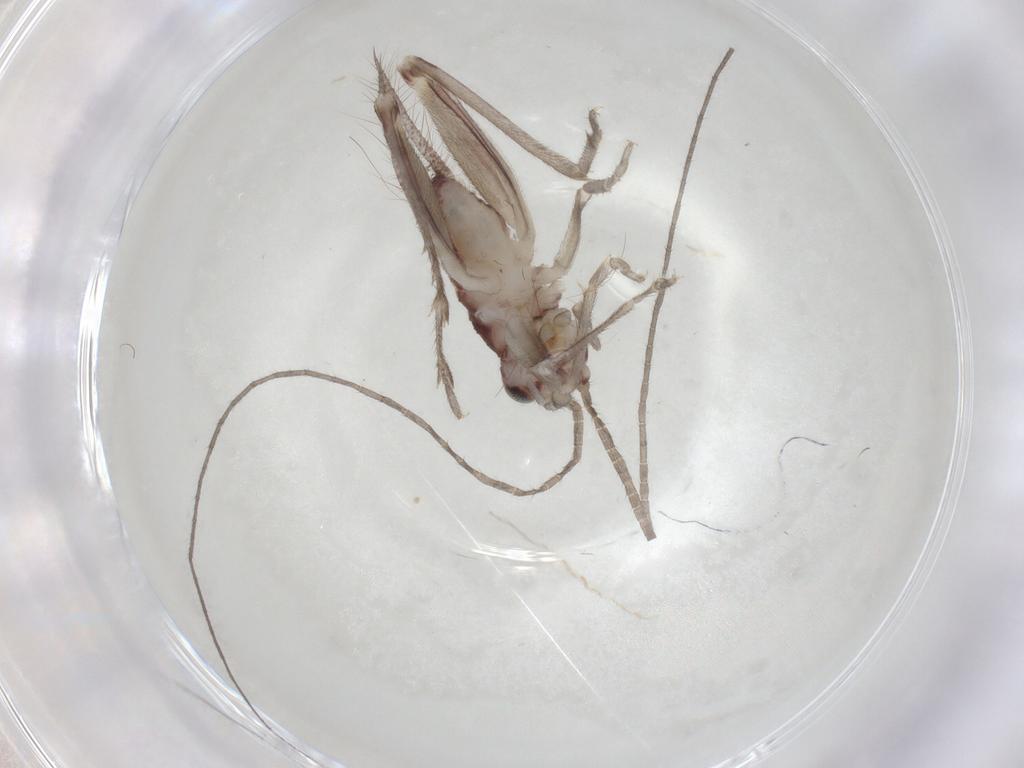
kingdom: Animalia
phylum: Arthropoda
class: Insecta
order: Orthoptera
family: Trigonidiidae
